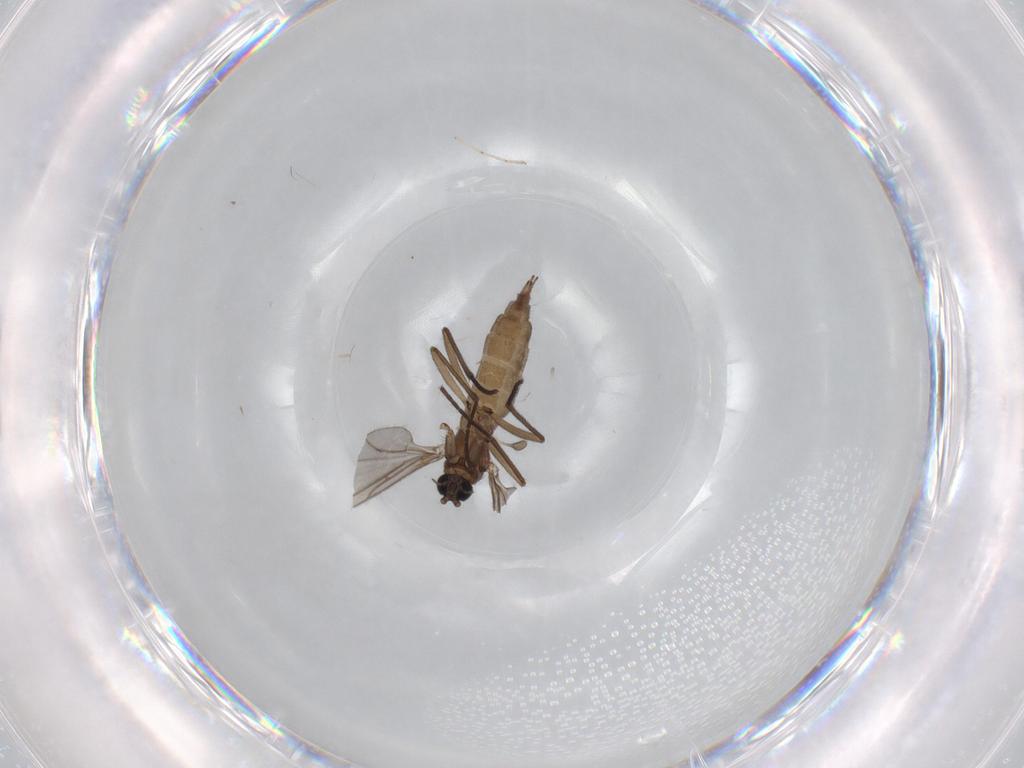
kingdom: Animalia
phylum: Arthropoda
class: Insecta
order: Diptera
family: Sciaridae
